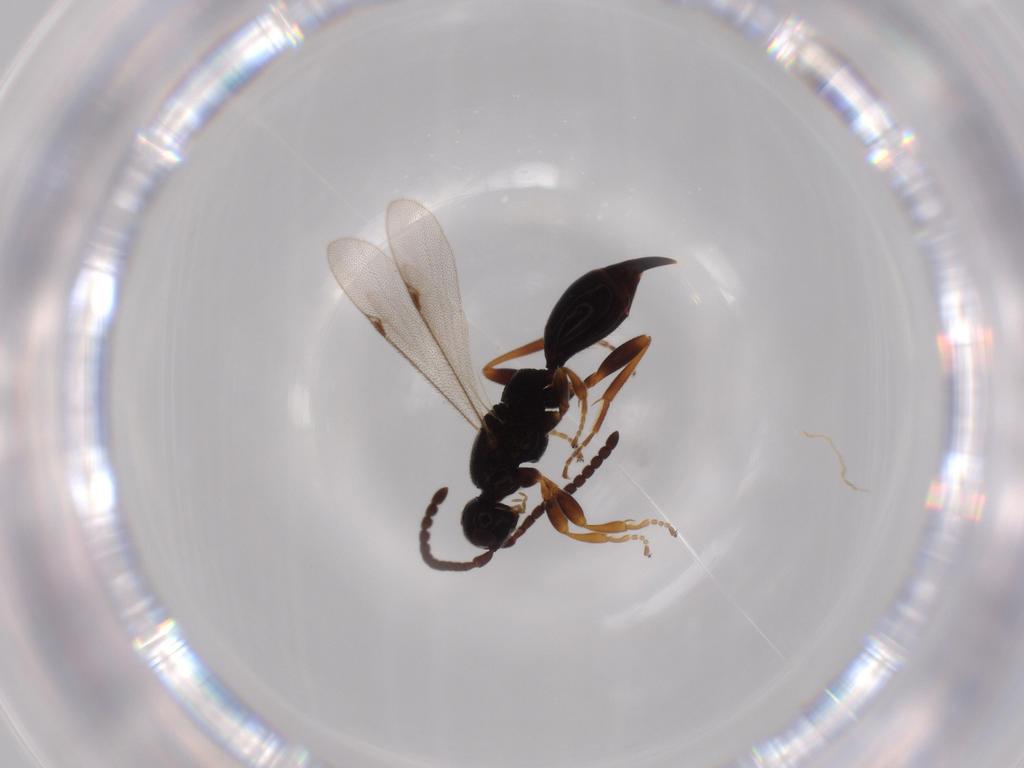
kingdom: Animalia
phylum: Arthropoda
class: Insecta
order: Hymenoptera
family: Proctotrupidae
